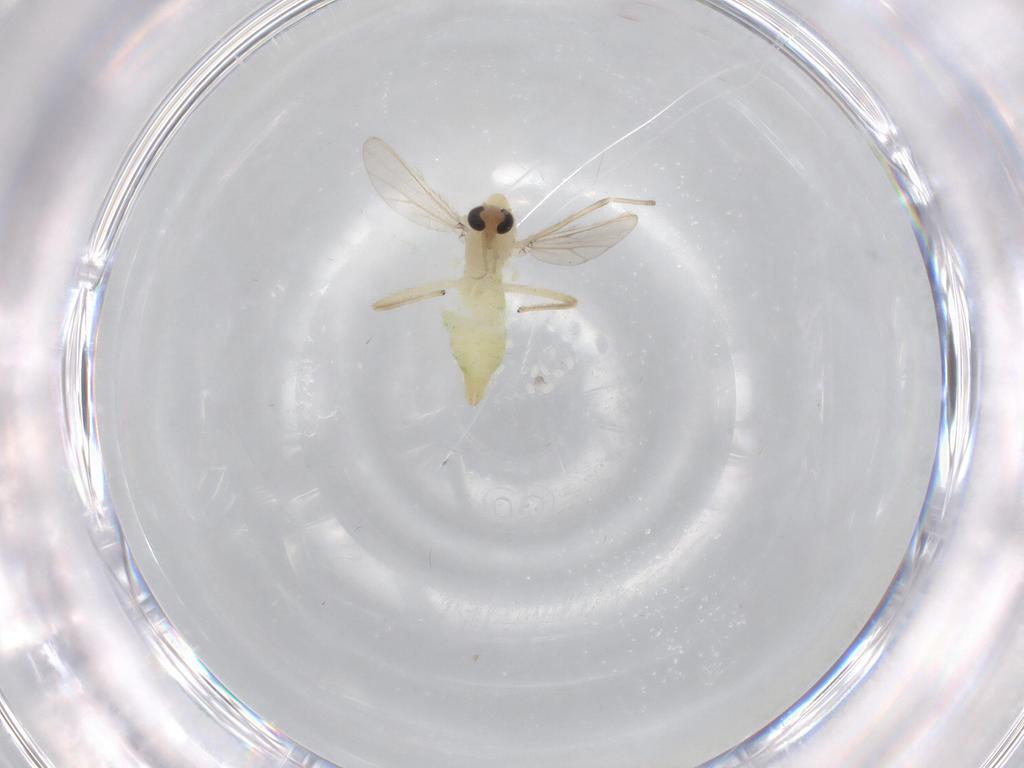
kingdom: Animalia
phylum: Arthropoda
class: Insecta
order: Diptera
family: Chironomidae
